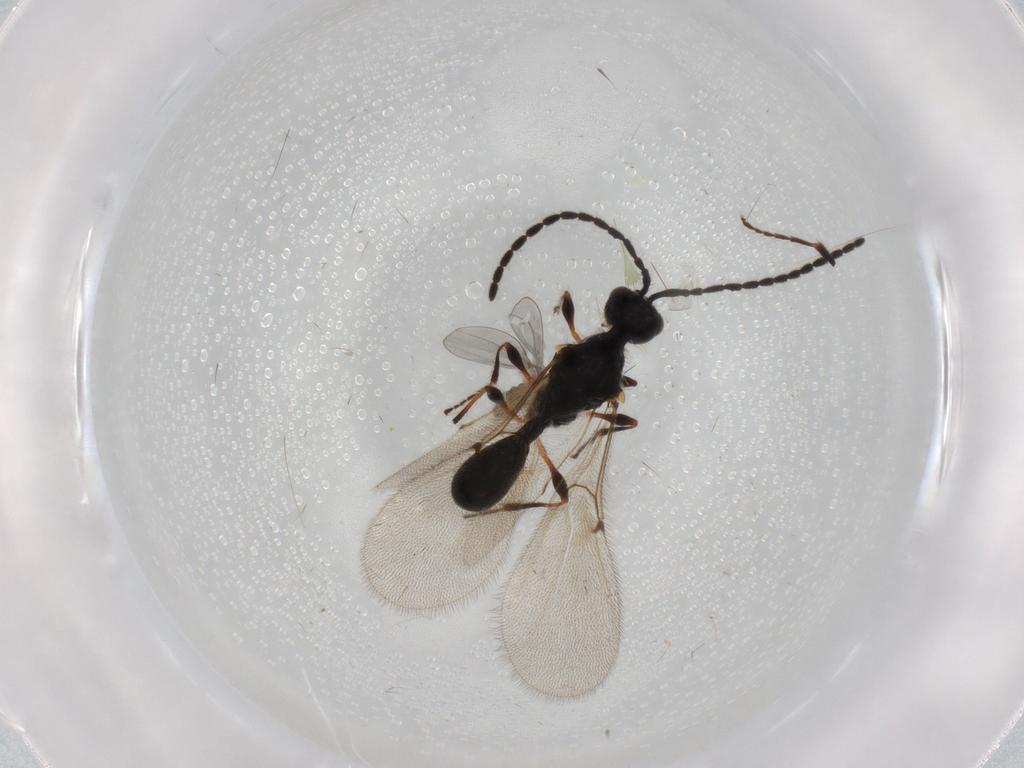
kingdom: Animalia
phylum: Arthropoda
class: Insecta
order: Hymenoptera
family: Diapriidae
